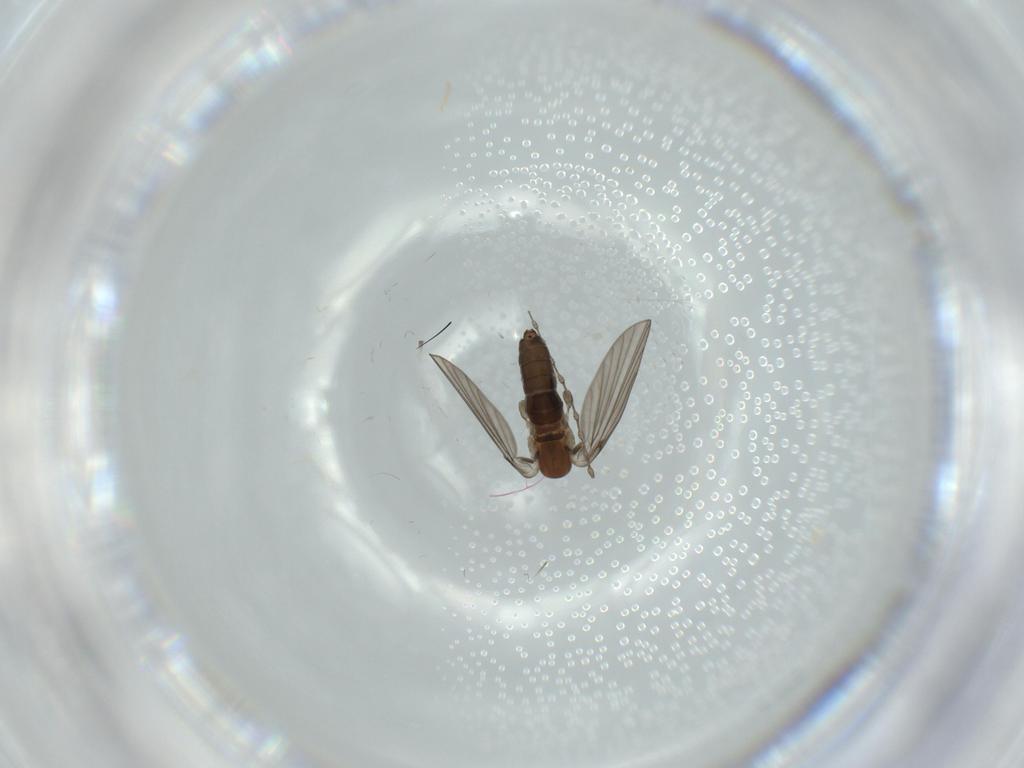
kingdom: Animalia
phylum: Arthropoda
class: Insecta
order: Diptera
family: Cecidomyiidae
